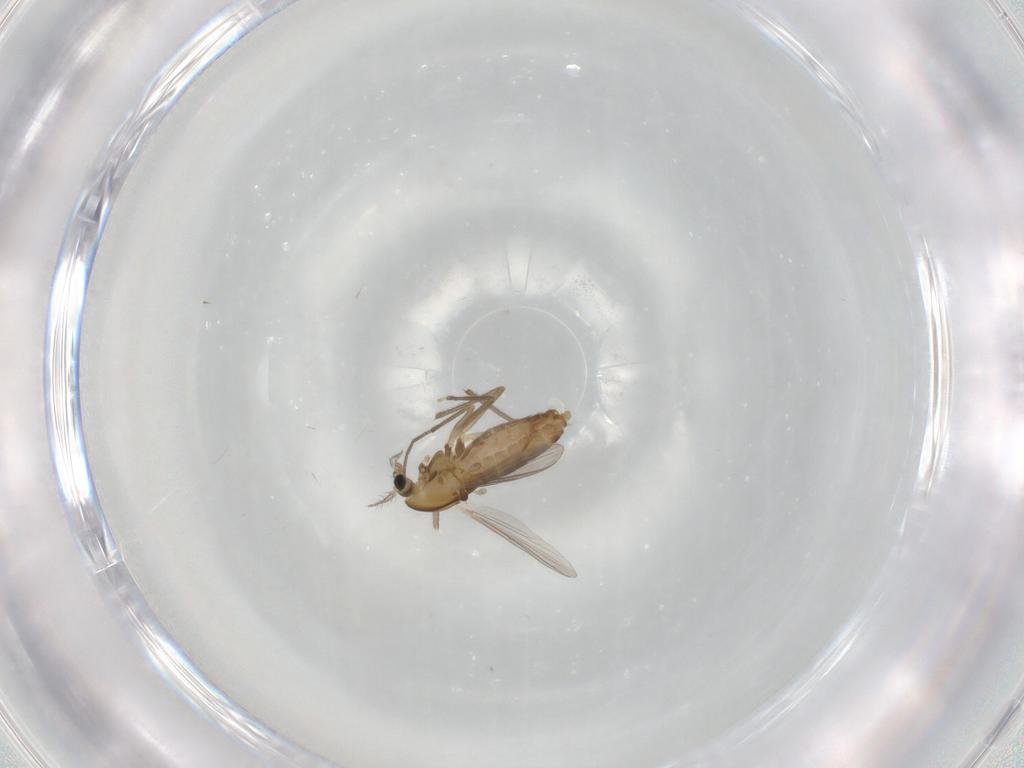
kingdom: Animalia
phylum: Arthropoda
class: Insecta
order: Diptera
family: Chironomidae
